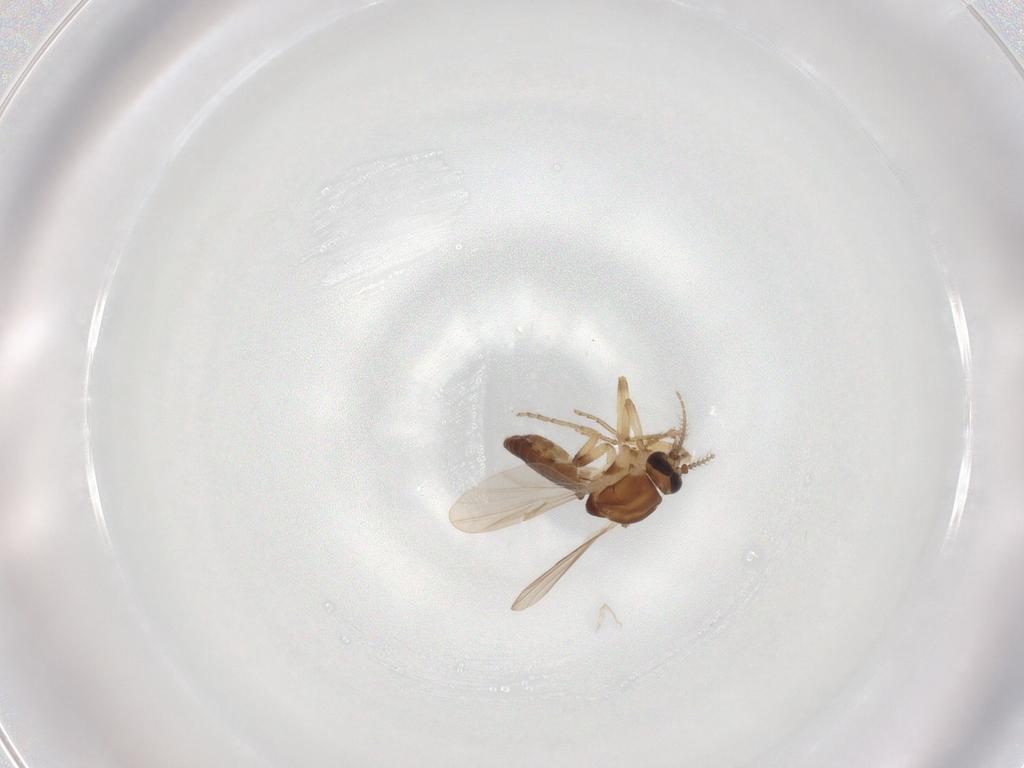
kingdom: Animalia
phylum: Arthropoda
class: Insecta
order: Diptera
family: Ceratopogonidae
